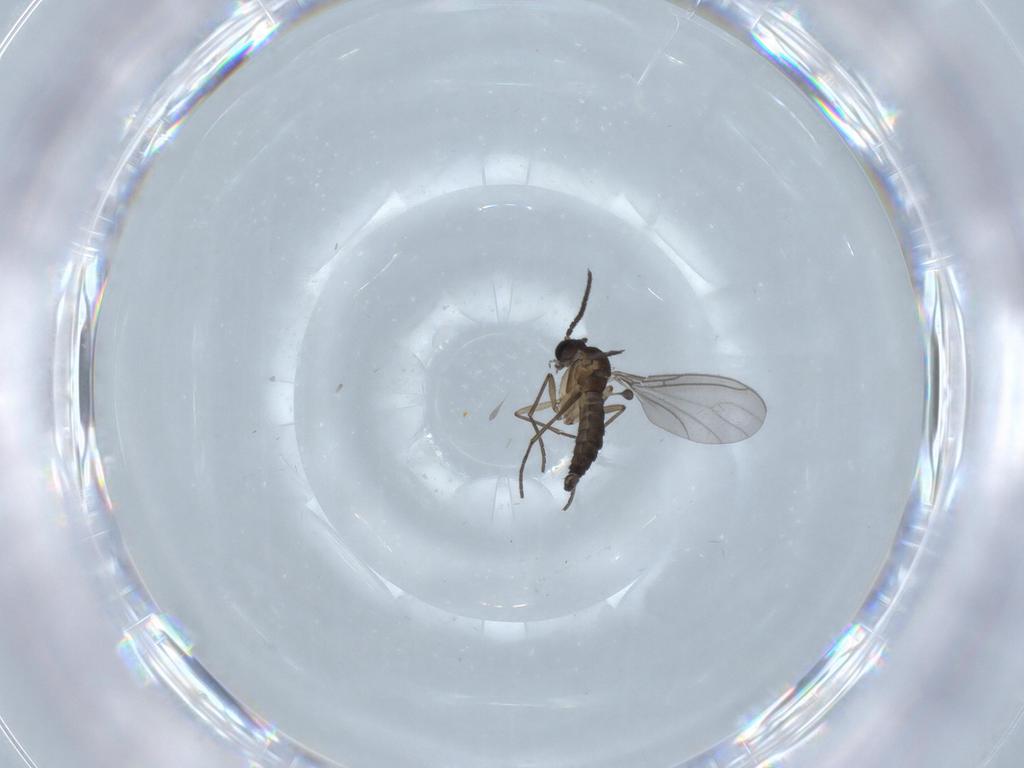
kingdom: Animalia
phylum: Arthropoda
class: Insecta
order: Diptera
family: Sciaridae
